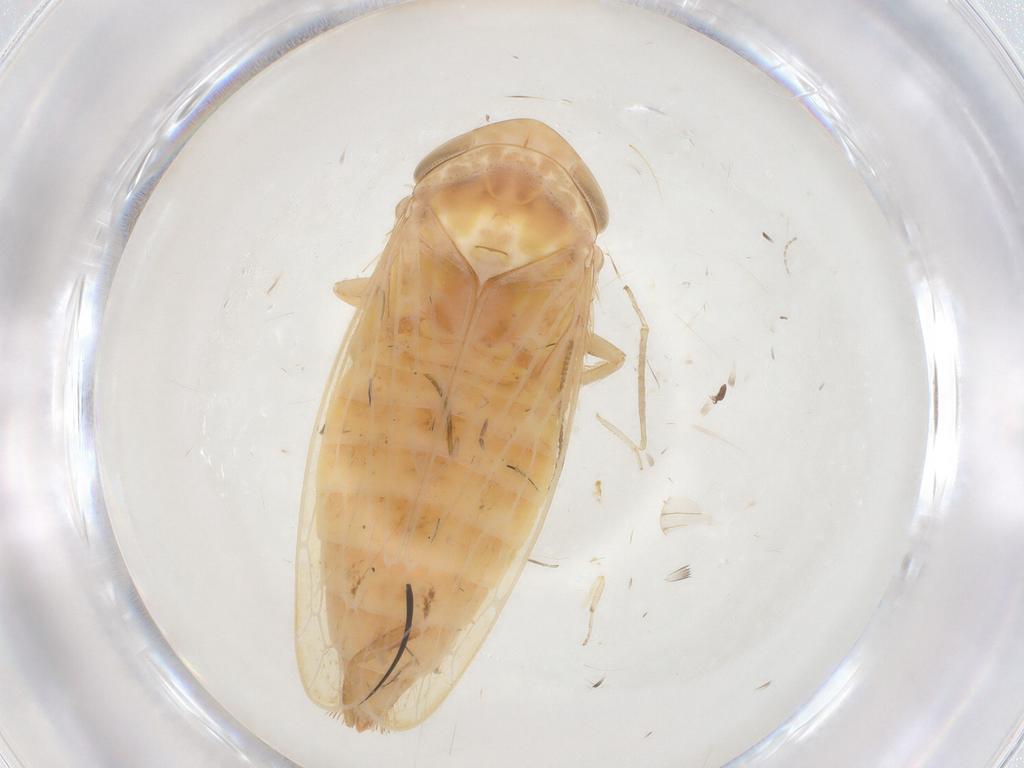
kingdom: Animalia
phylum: Arthropoda
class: Insecta
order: Hemiptera
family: Cicadellidae
